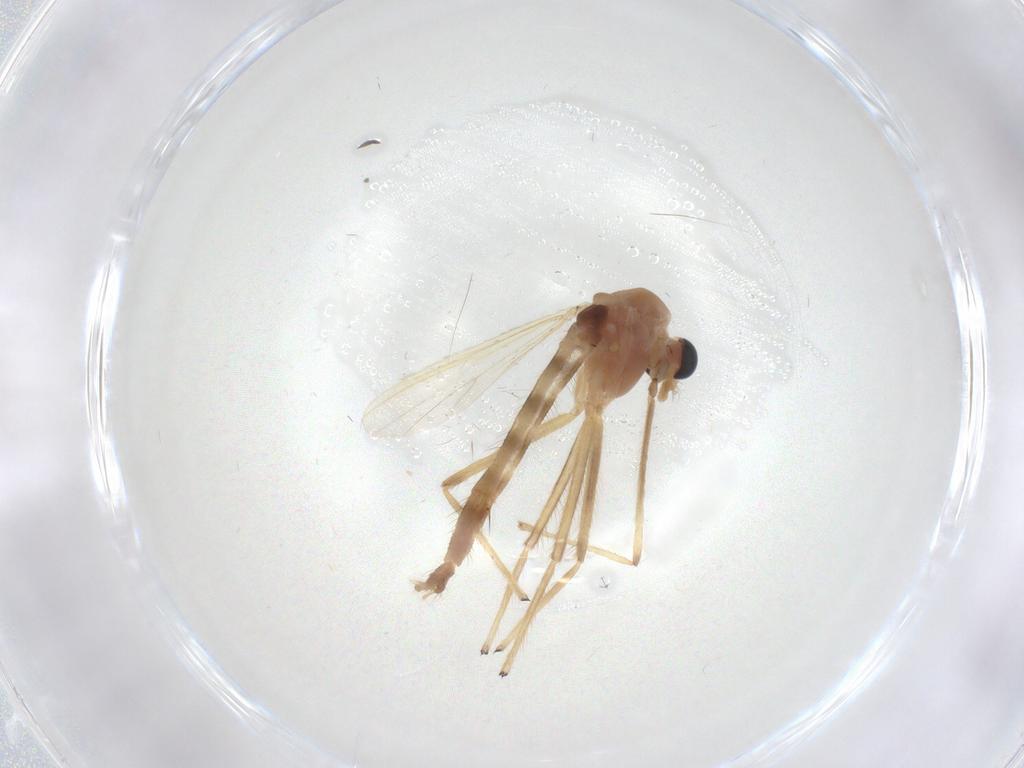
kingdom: Animalia
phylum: Arthropoda
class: Insecta
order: Diptera
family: Chironomidae
